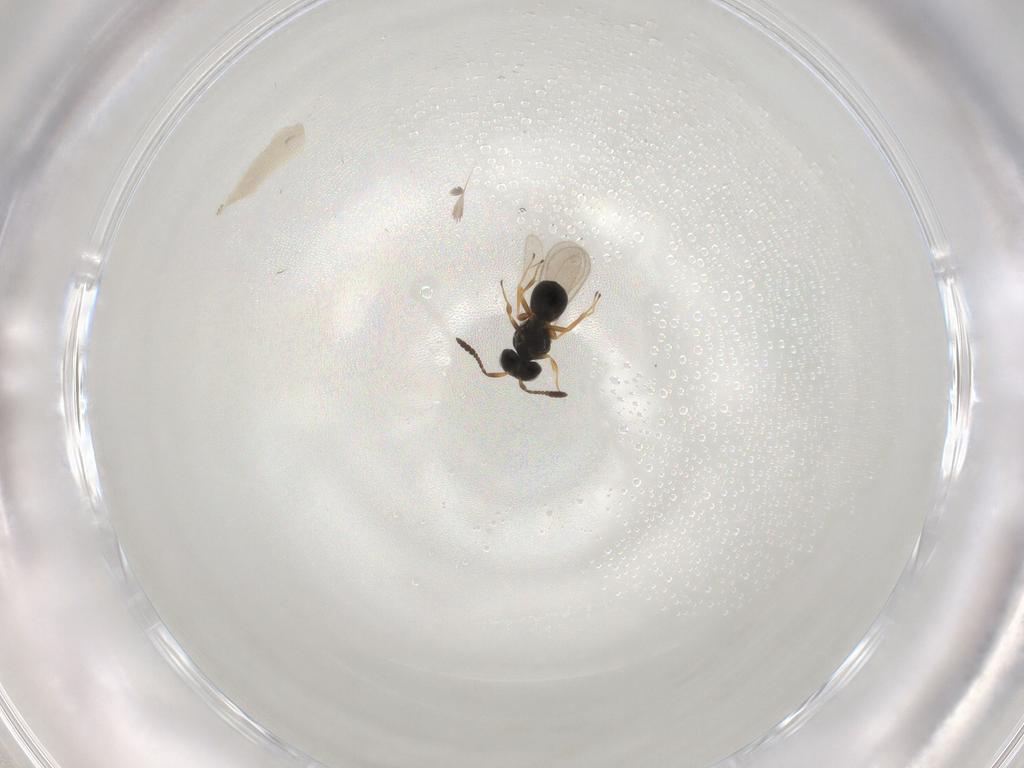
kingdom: Animalia
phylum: Arthropoda
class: Insecta
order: Hymenoptera
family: Scelionidae
